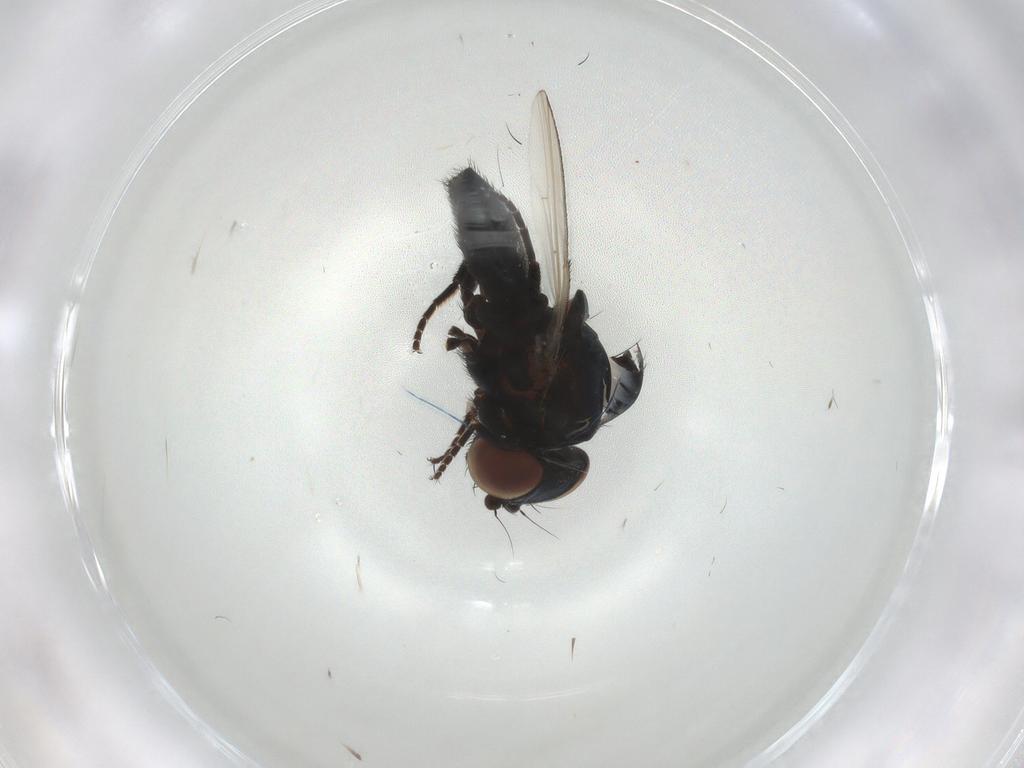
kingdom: Animalia
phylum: Arthropoda
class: Insecta
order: Diptera
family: Milichiidae
